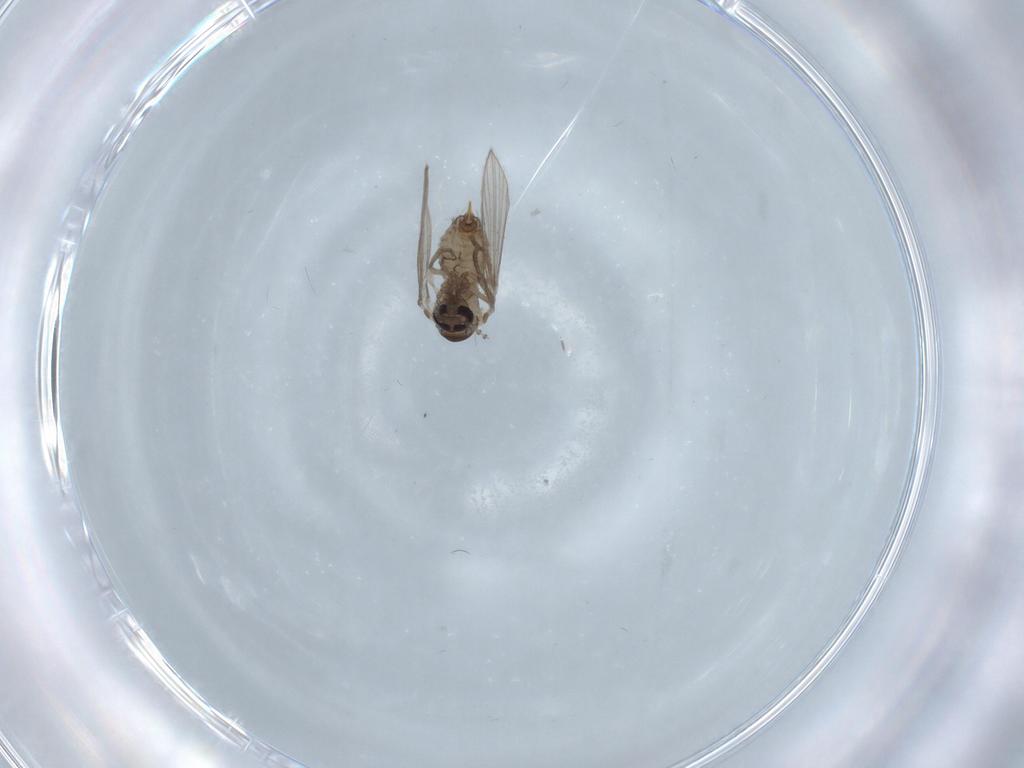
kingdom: Animalia
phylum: Arthropoda
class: Insecta
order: Diptera
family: Psychodidae
